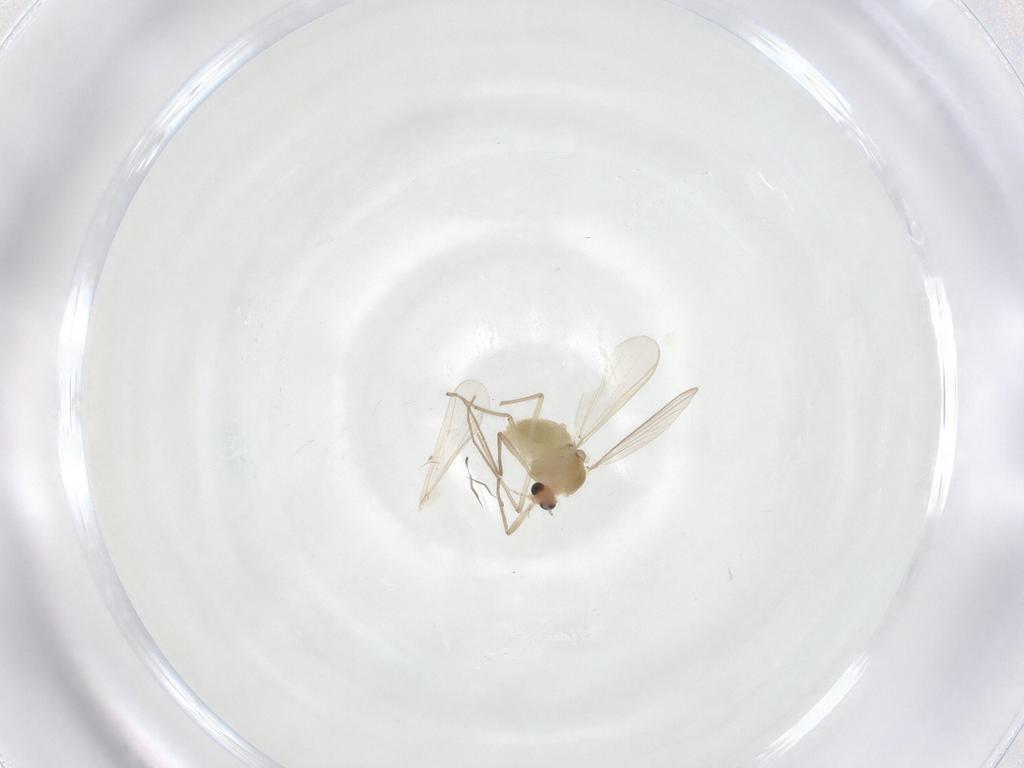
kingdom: Animalia
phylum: Arthropoda
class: Insecta
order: Diptera
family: Chironomidae
